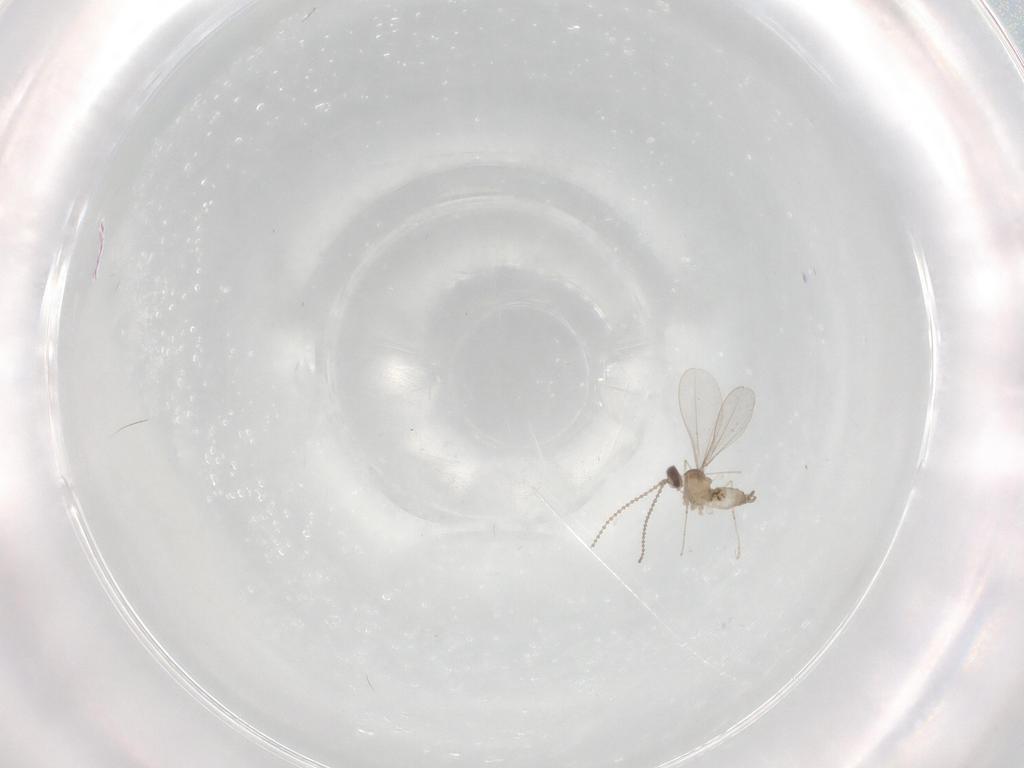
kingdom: Animalia
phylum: Arthropoda
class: Insecta
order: Diptera
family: Cecidomyiidae
